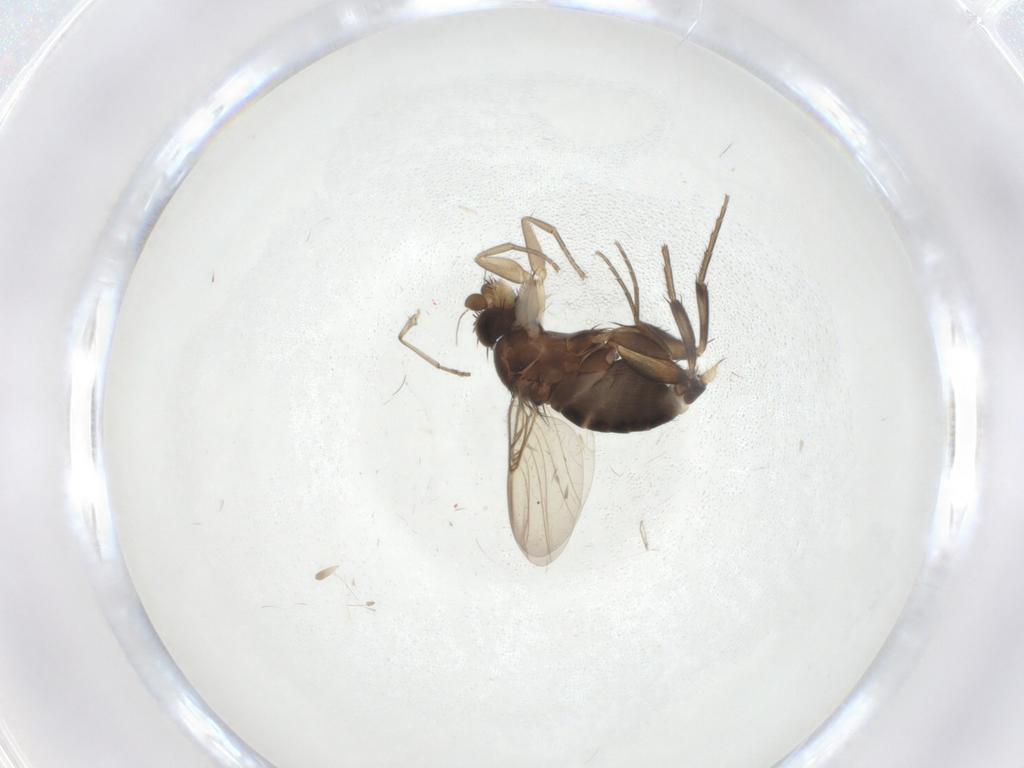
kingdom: Animalia
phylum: Arthropoda
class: Insecta
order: Diptera
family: Phoridae
